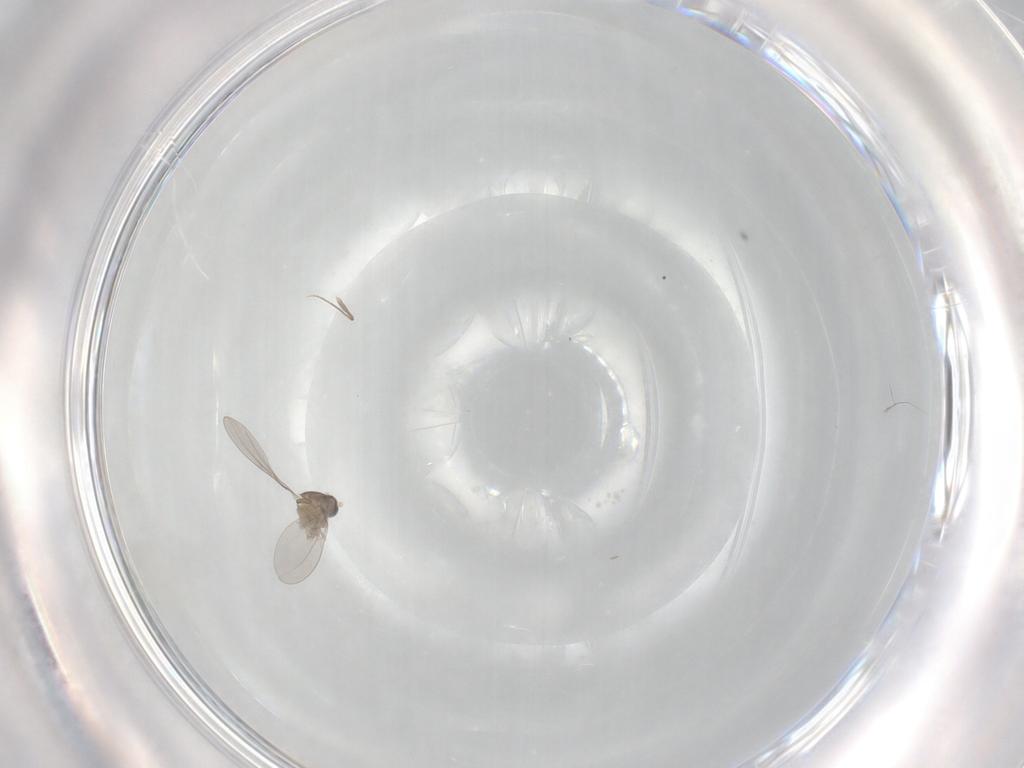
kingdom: Animalia
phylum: Arthropoda
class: Insecta
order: Diptera
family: Cecidomyiidae
